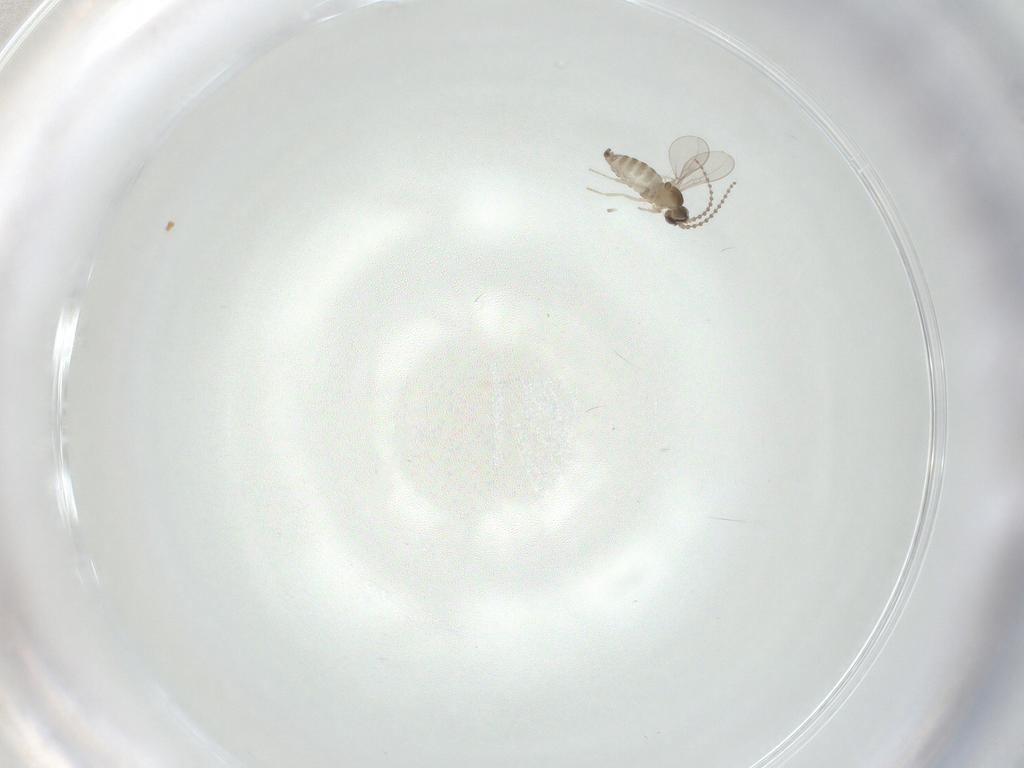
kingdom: Animalia
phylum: Arthropoda
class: Insecta
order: Diptera
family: Cecidomyiidae
